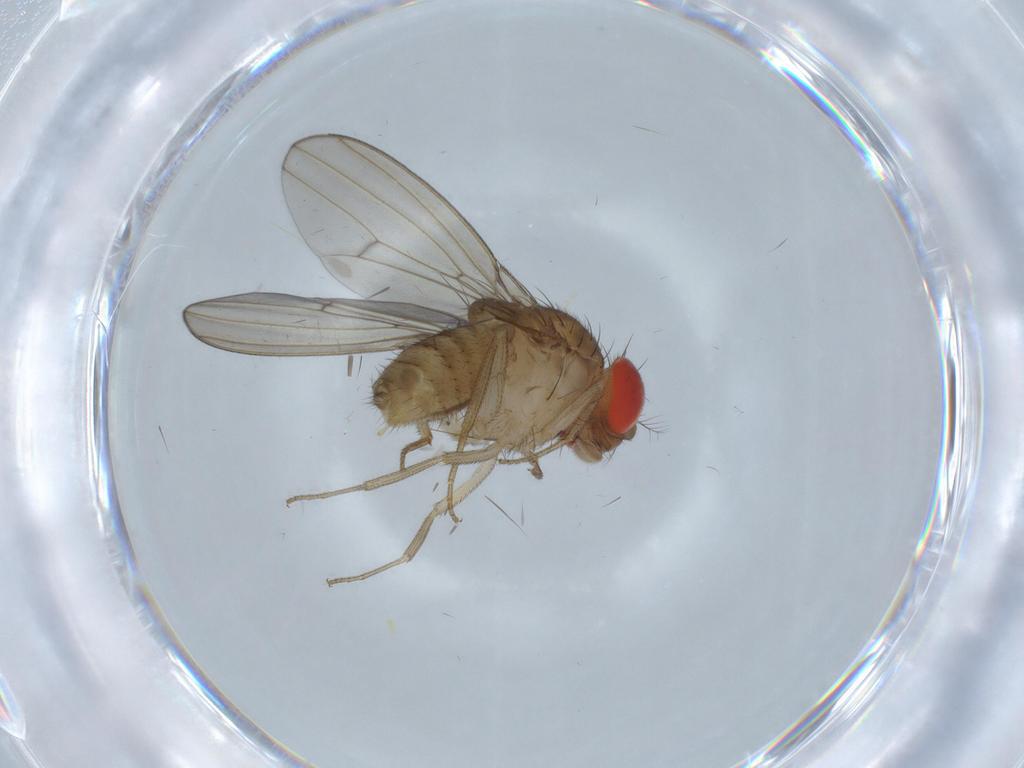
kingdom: Animalia
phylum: Arthropoda
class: Insecta
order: Diptera
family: Drosophilidae
